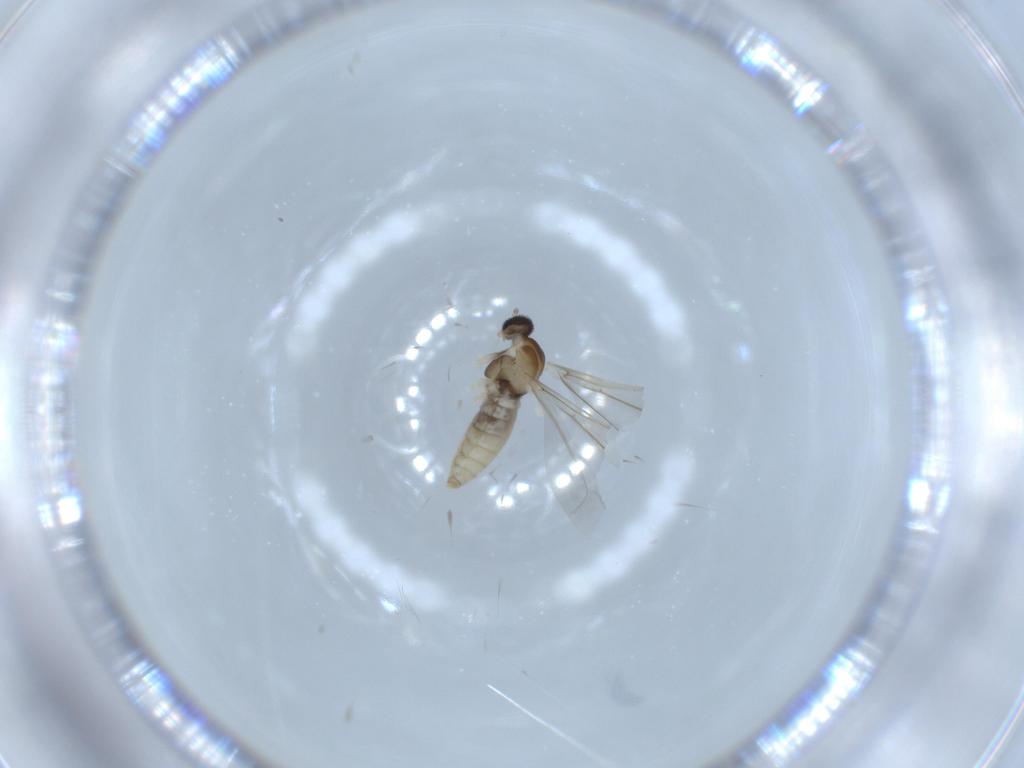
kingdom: Animalia
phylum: Arthropoda
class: Insecta
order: Diptera
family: Cecidomyiidae
